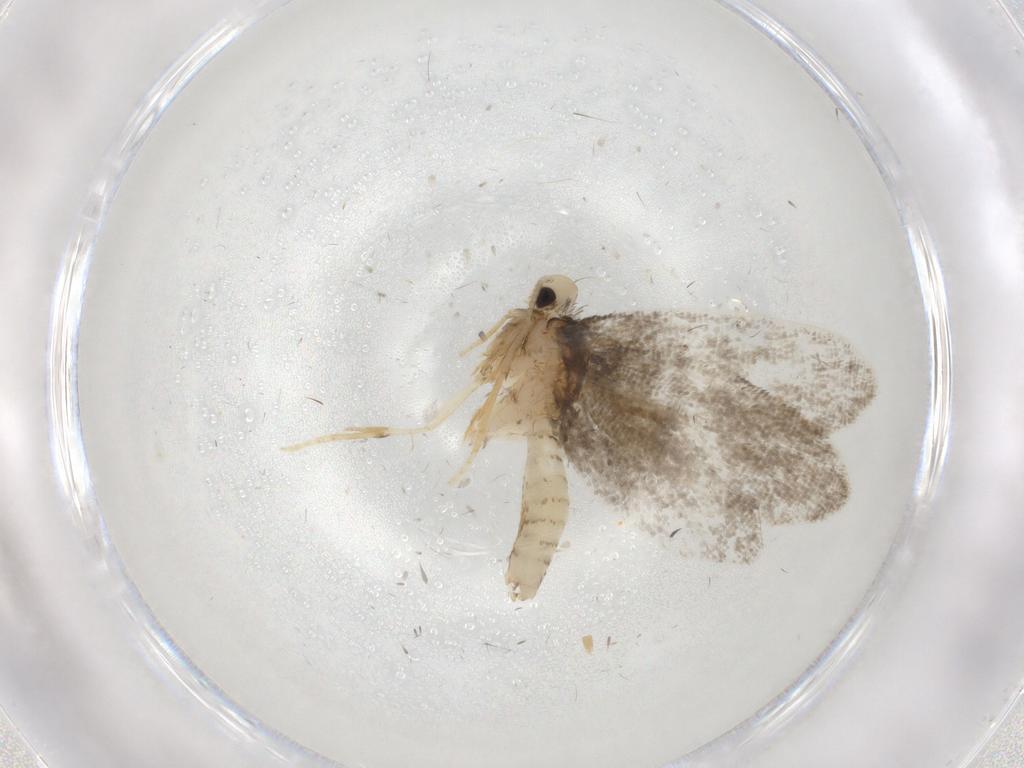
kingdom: Animalia
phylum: Arthropoda
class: Insecta
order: Lepidoptera
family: Psychidae
